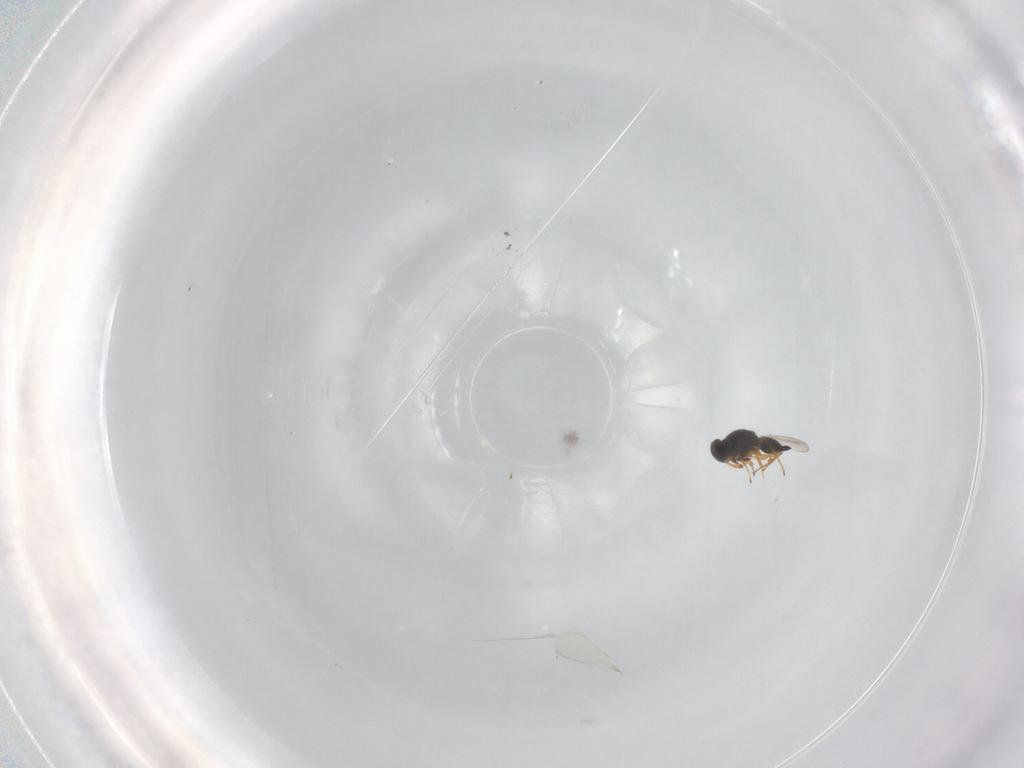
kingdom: Animalia
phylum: Arthropoda
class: Insecta
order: Hymenoptera
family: Platygastridae
